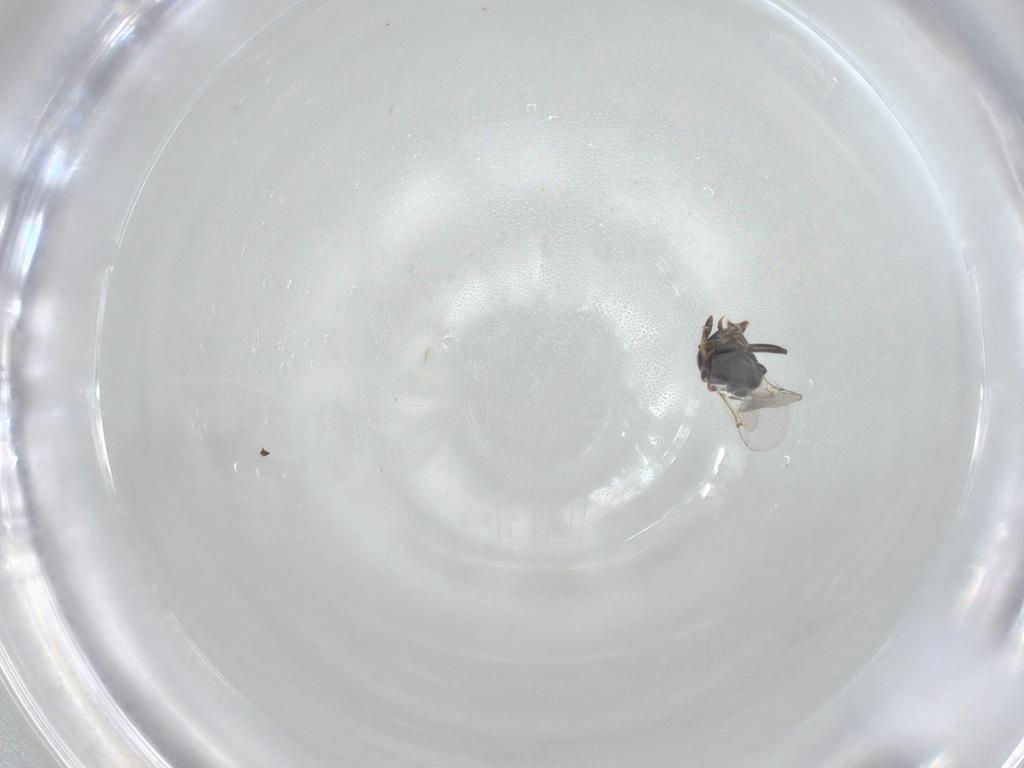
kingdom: Animalia
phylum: Arthropoda
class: Insecta
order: Hymenoptera
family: Encyrtidae
